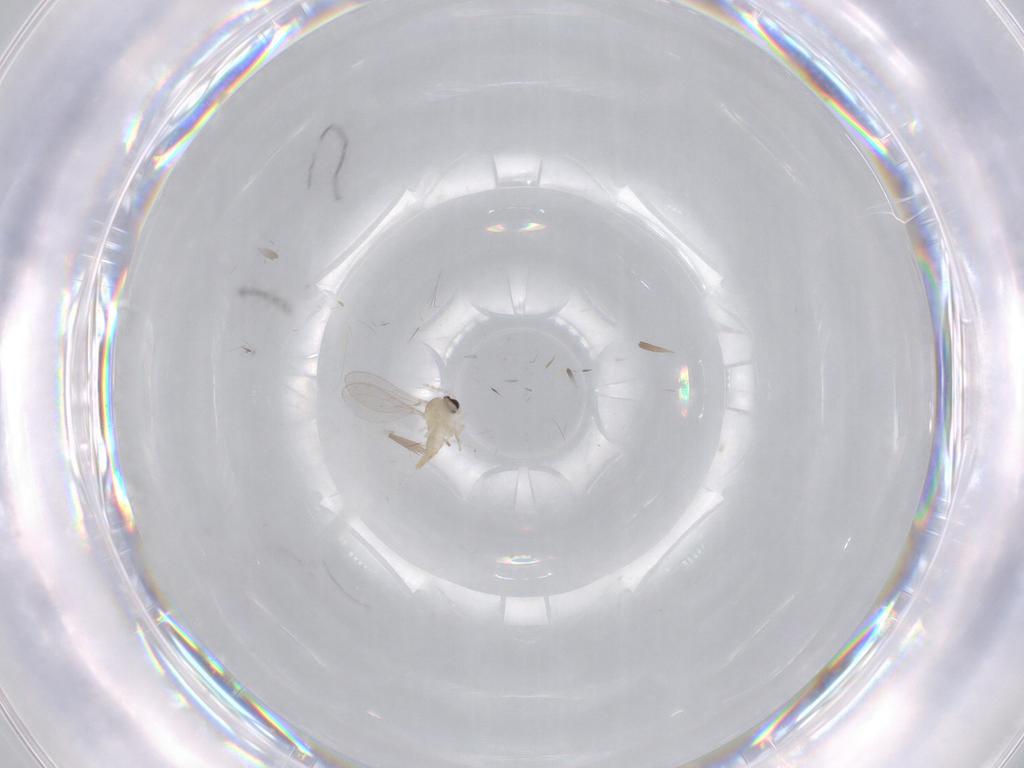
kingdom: Animalia
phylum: Arthropoda
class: Insecta
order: Diptera
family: Cecidomyiidae
